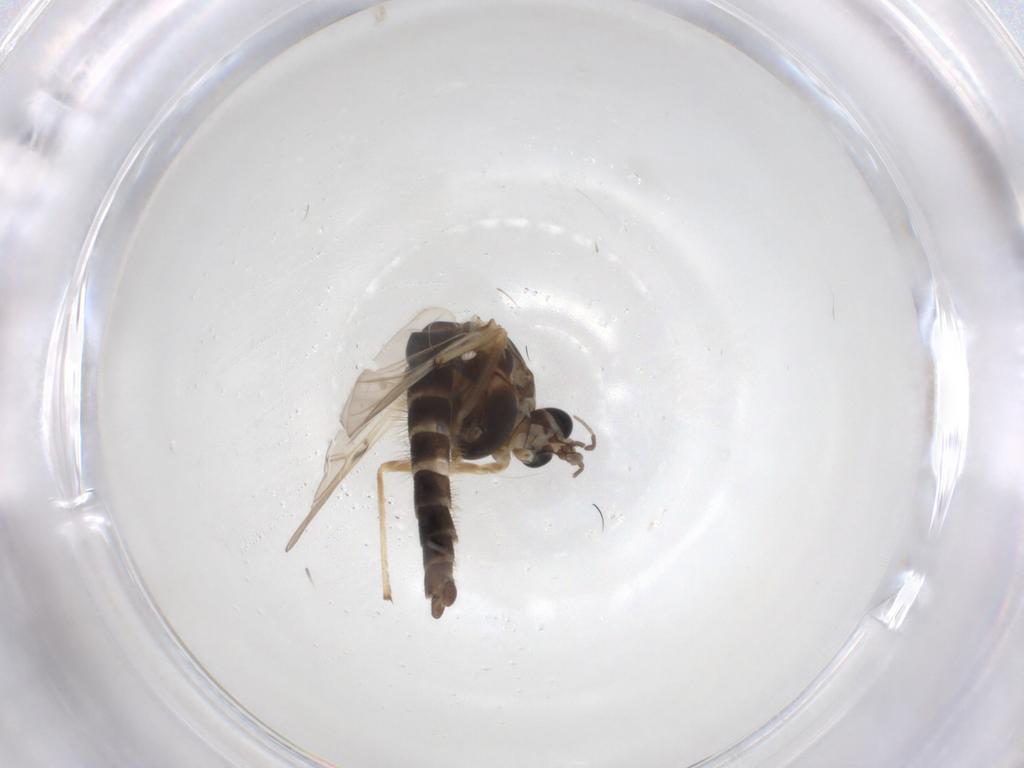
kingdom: Animalia
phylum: Arthropoda
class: Insecta
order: Diptera
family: Chironomidae
